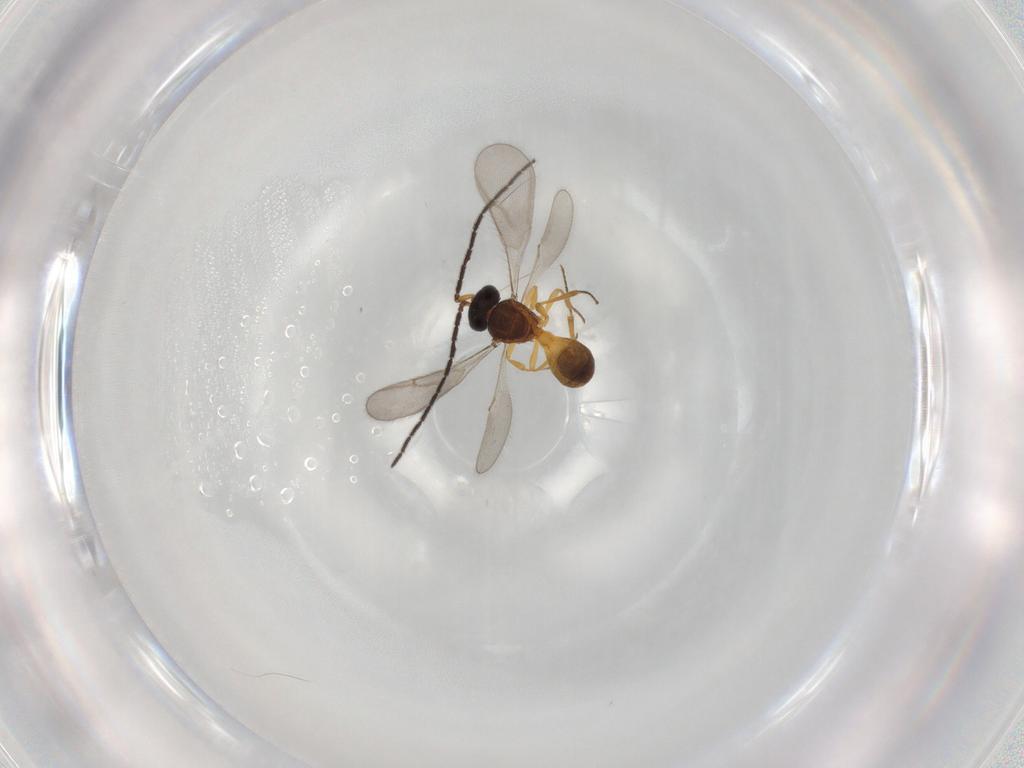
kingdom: Animalia
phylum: Arthropoda
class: Insecta
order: Hymenoptera
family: Scelionidae
